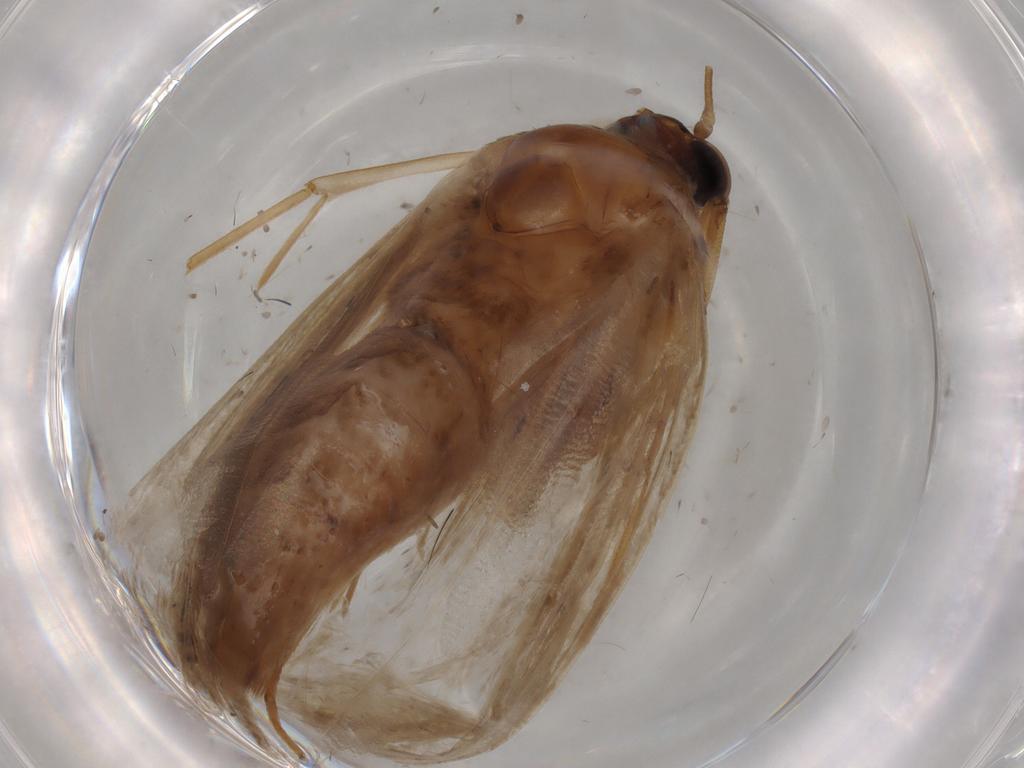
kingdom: Animalia
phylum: Arthropoda
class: Insecta
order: Lepidoptera
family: Crambidae
